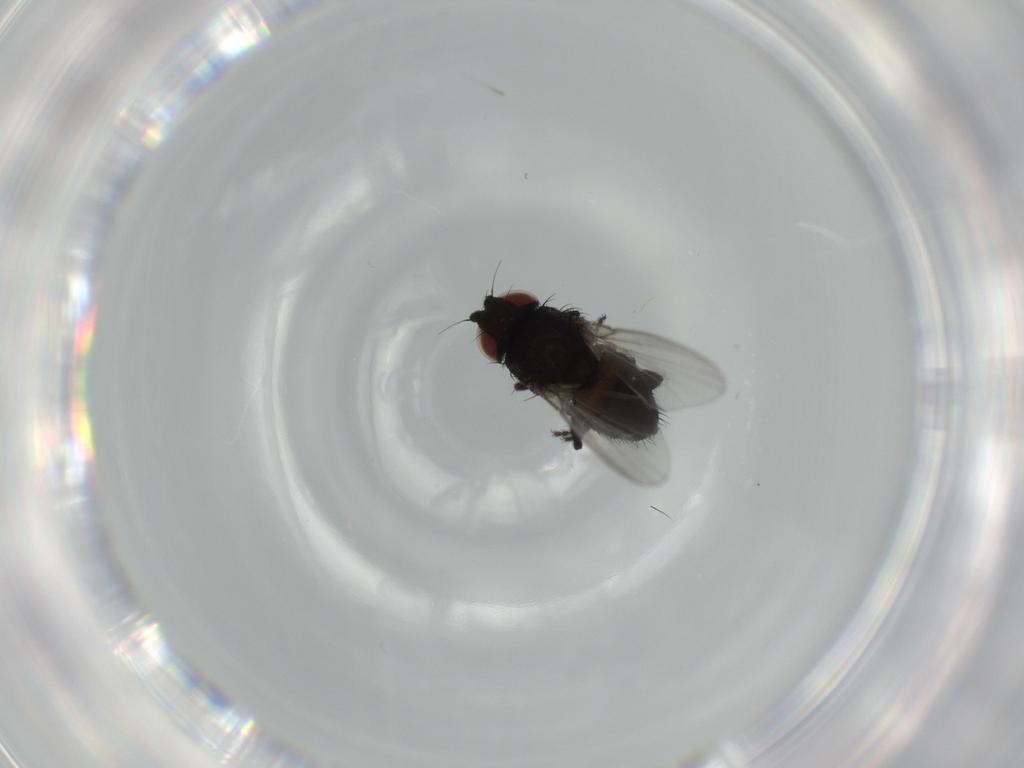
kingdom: Animalia
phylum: Arthropoda
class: Insecta
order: Diptera
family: Milichiidae
